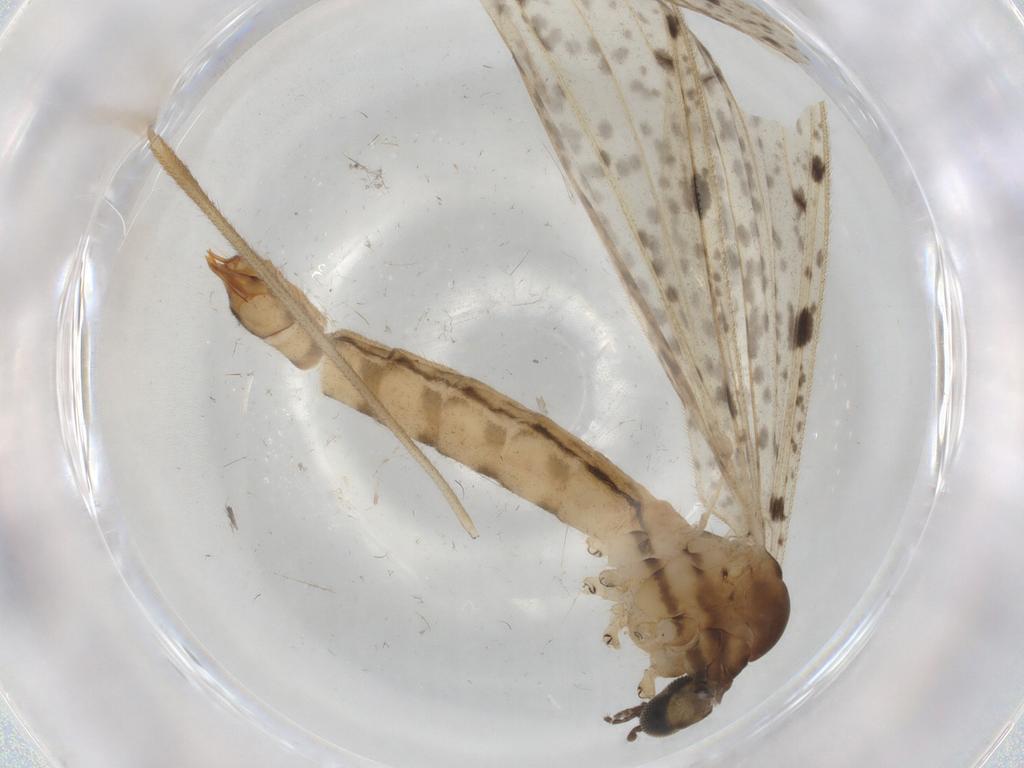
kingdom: Animalia
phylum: Arthropoda
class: Insecta
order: Diptera
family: Limoniidae
